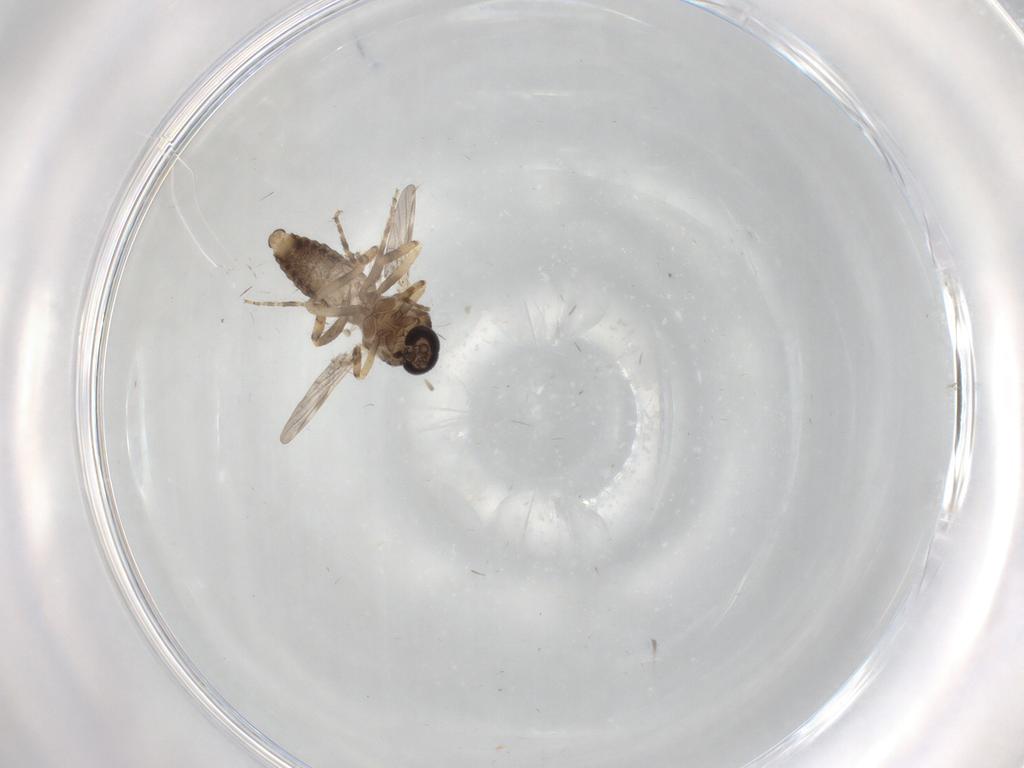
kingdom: Animalia
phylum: Arthropoda
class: Insecta
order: Diptera
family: Ceratopogonidae
